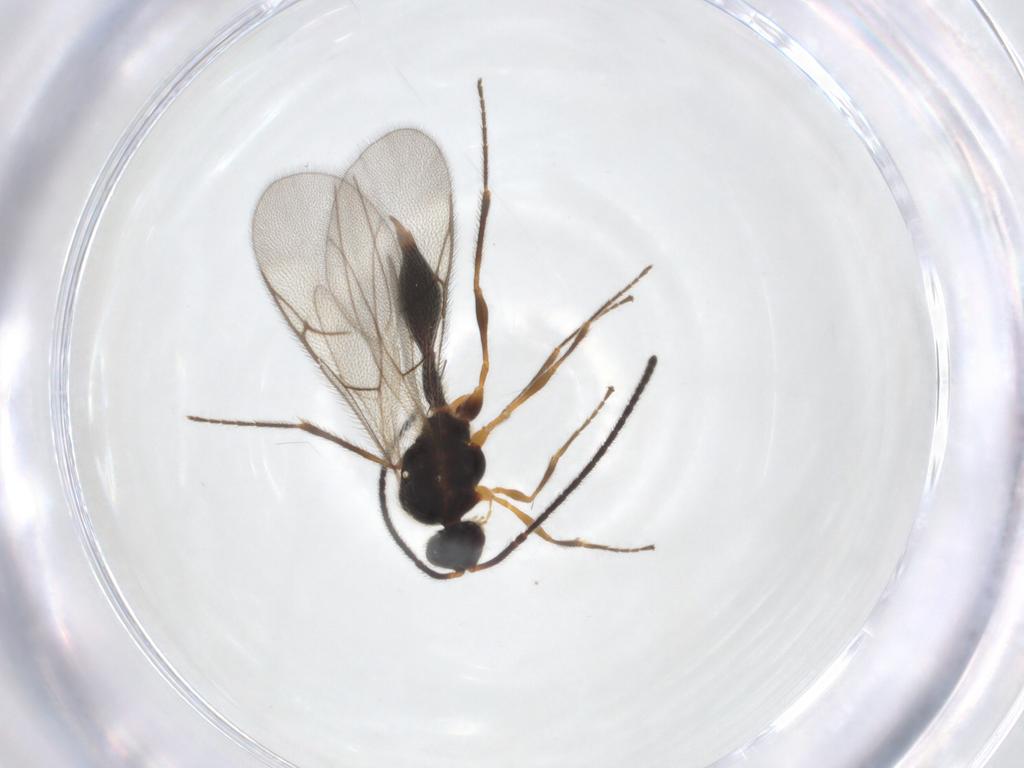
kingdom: Animalia
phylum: Arthropoda
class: Insecta
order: Hymenoptera
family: Diapriidae
